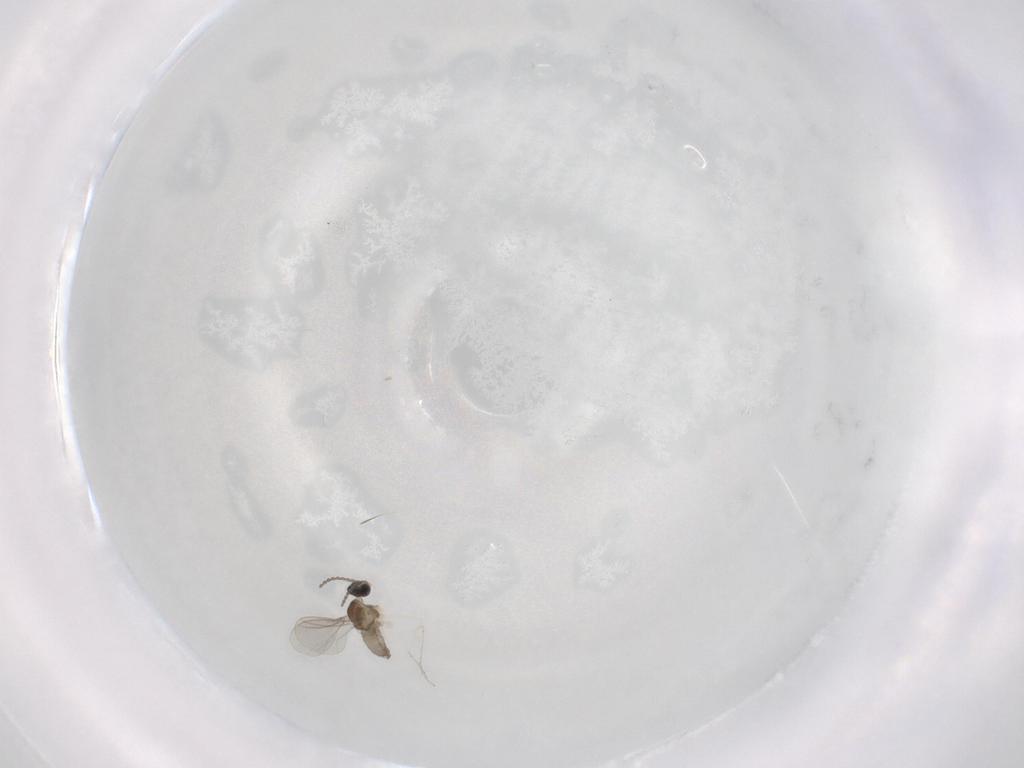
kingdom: Animalia
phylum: Arthropoda
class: Insecta
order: Diptera
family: Cecidomyiidae
